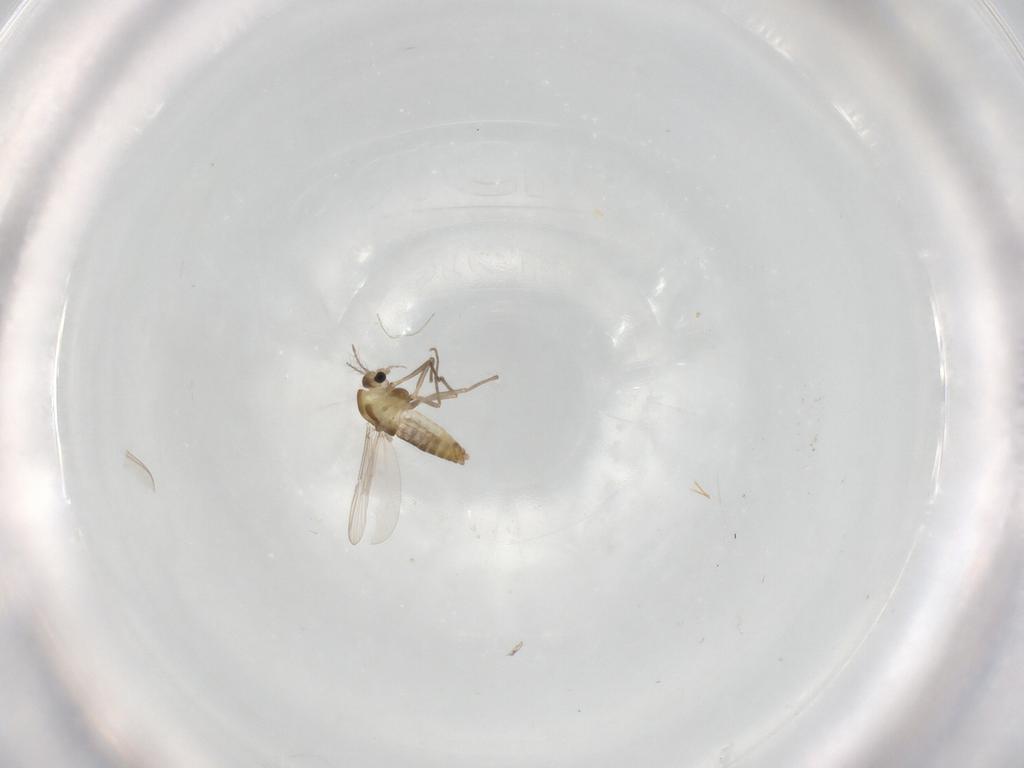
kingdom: Animalia
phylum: Arthropoda
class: Insecta
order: Diptera
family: Chironomidae
